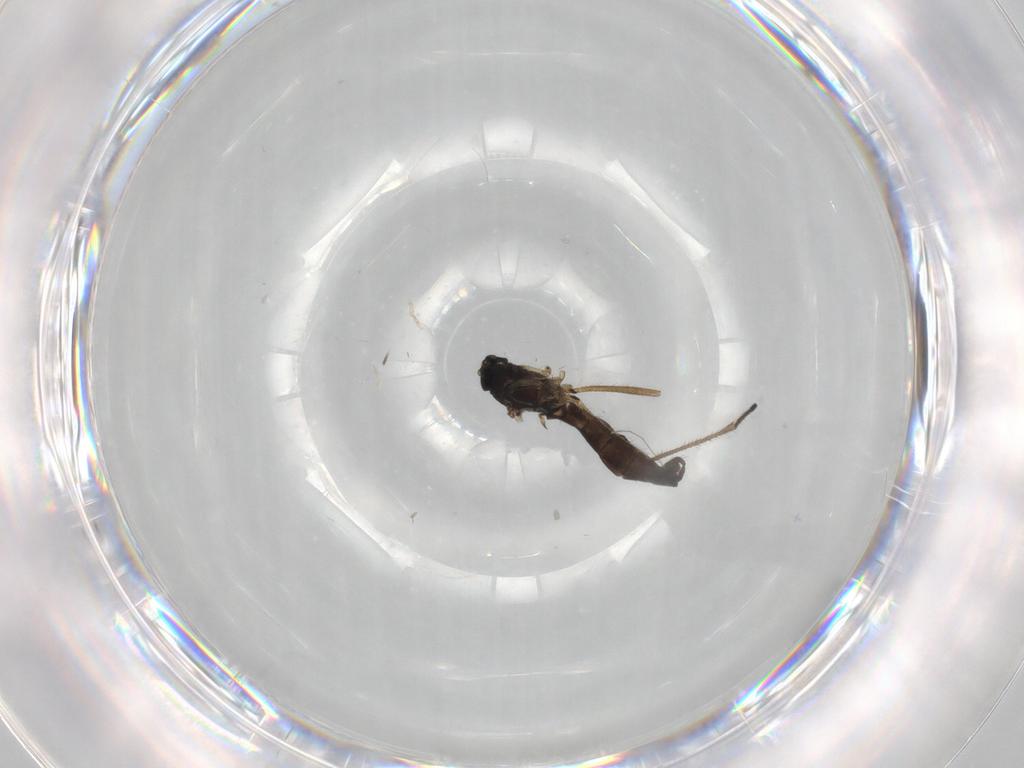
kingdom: Animalia
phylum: Arthropoda
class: Insecta
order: Diptera
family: Sciaridae
